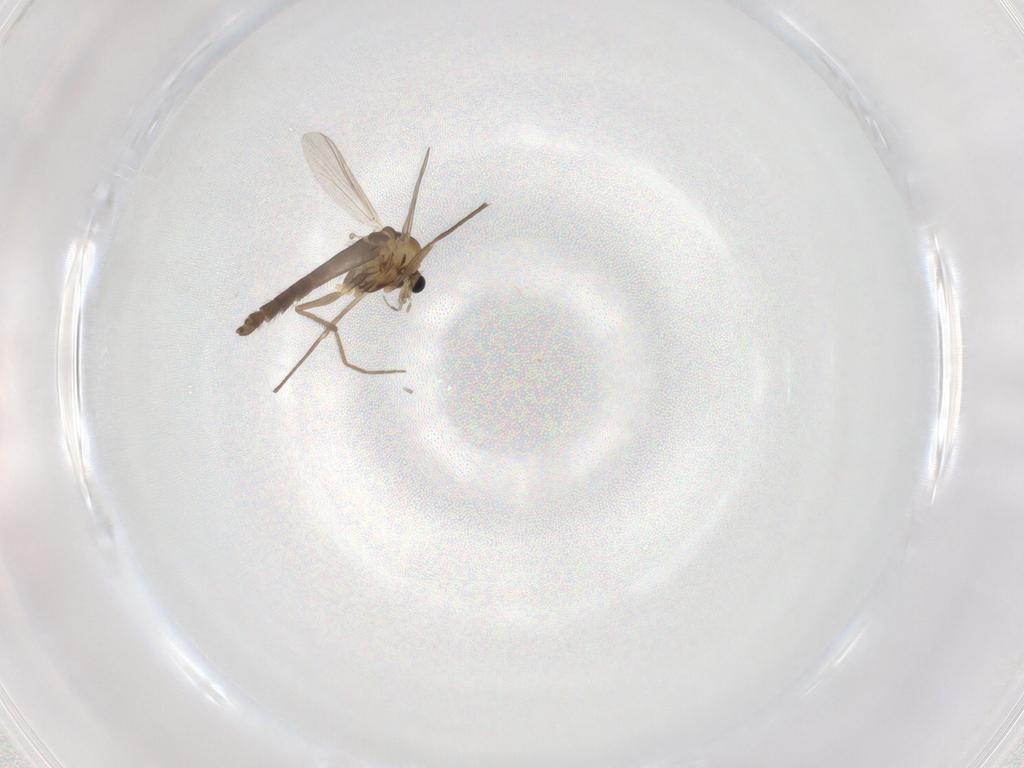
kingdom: Animalia
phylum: Arthropoda
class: Insecta
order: Diptera
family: Chironomidae
